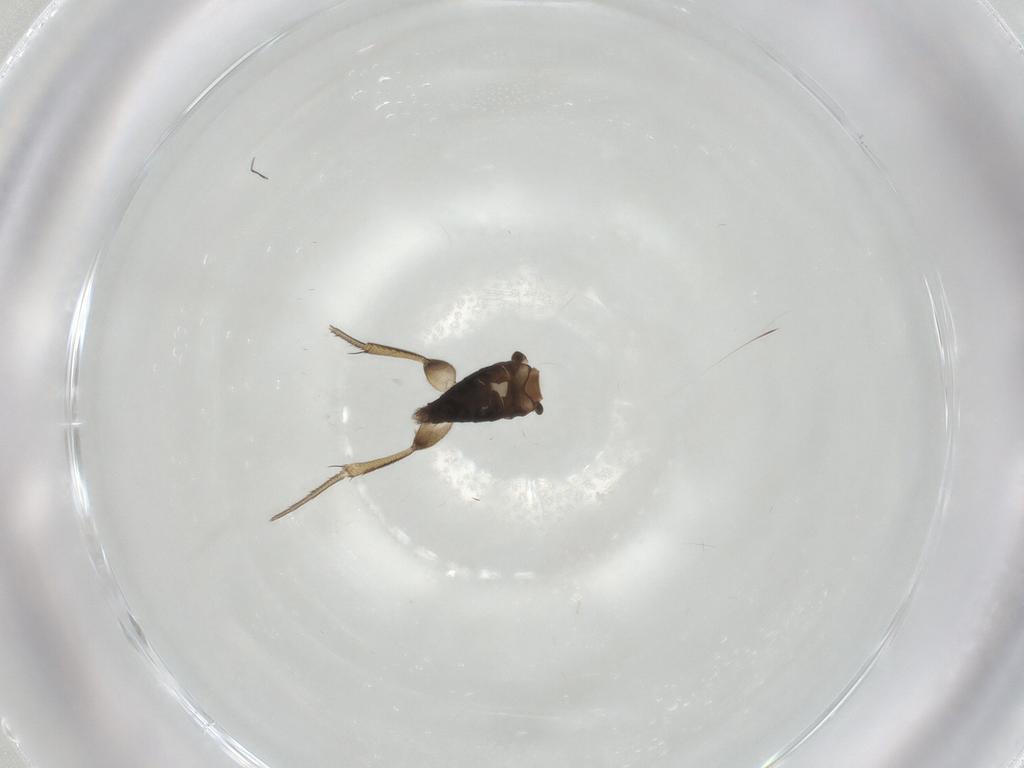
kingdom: Animalia
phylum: Arthropoda
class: Insecta
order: Diptera
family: Phoridae
